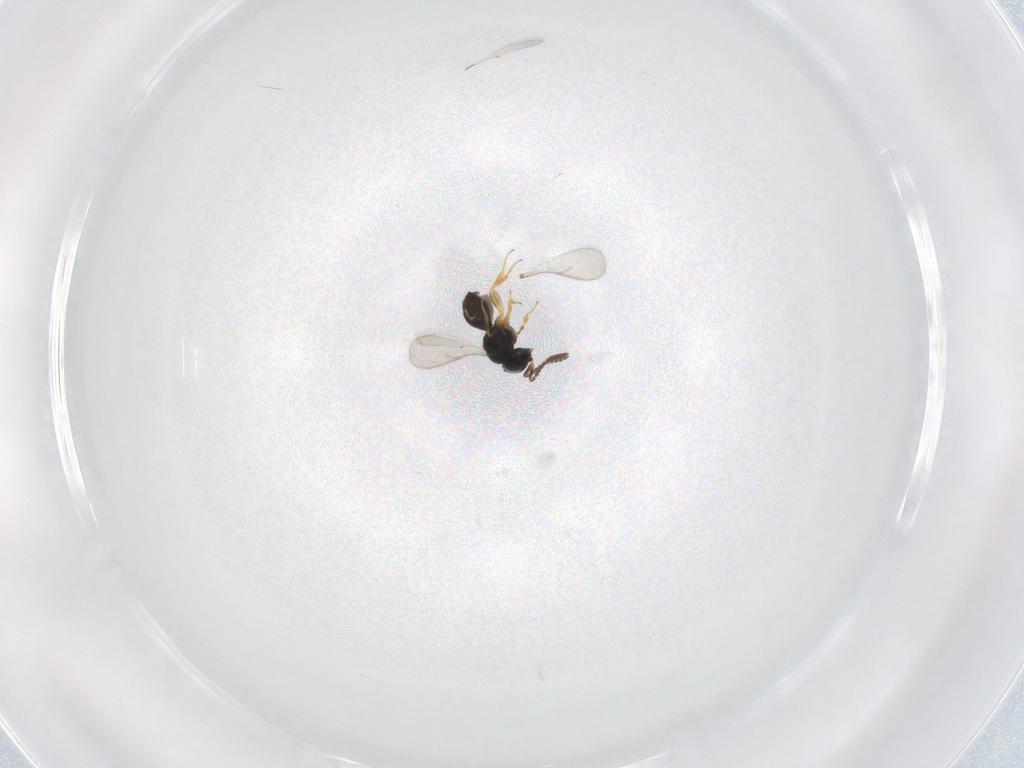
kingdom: Animalia
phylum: Arthropoda
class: Insecta
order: Hymenoptera
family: Scelionidae
